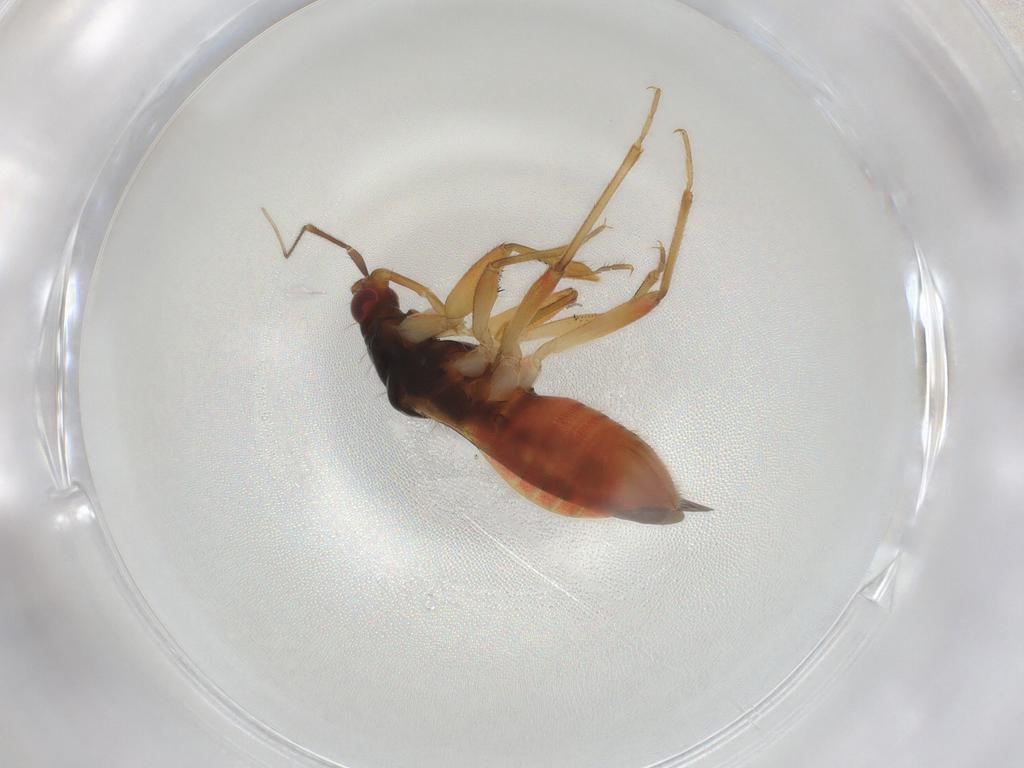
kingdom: Animalia
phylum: Arthropoda
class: Insecta
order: Hemiptera
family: Nabidae
